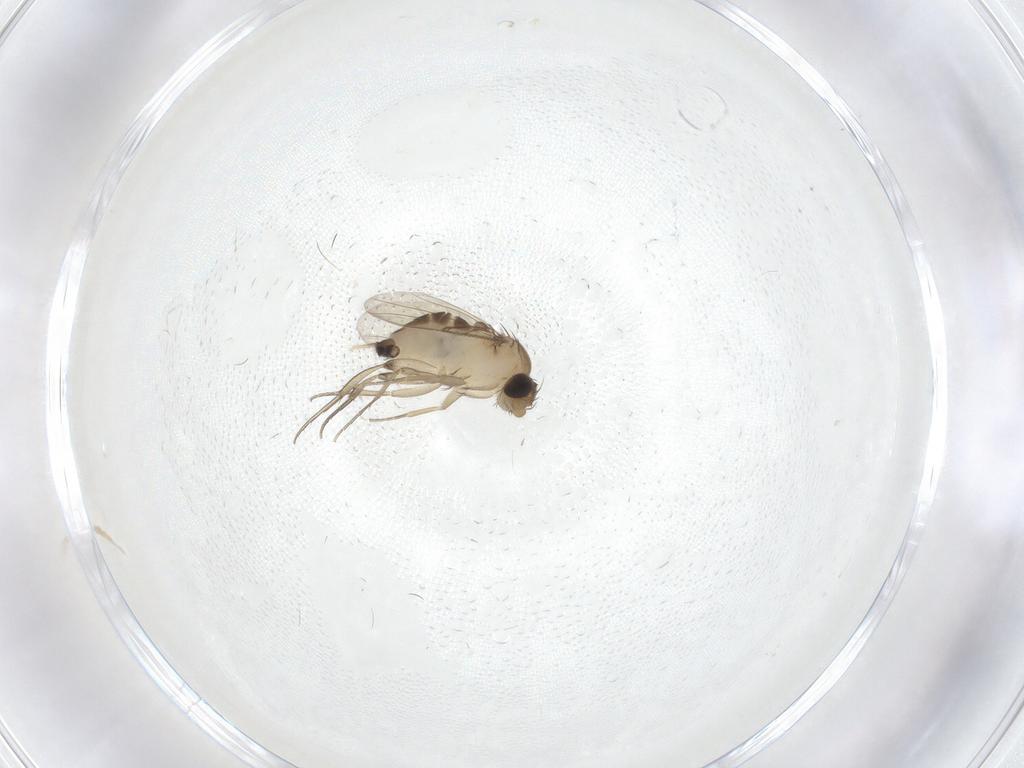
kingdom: Animalia
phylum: Arthropoda
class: Insecta
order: Diptera
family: Phoridae
